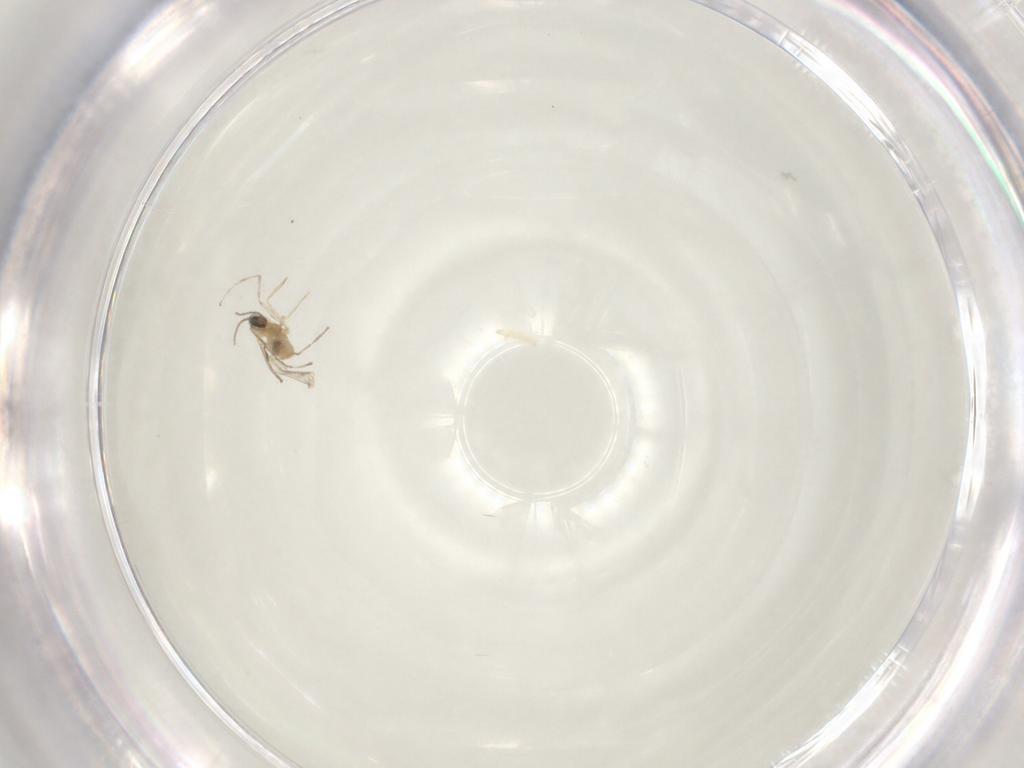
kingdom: Animalia
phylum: Arthropoda
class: Insecta
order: Diptera
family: Cecidomyiidae
